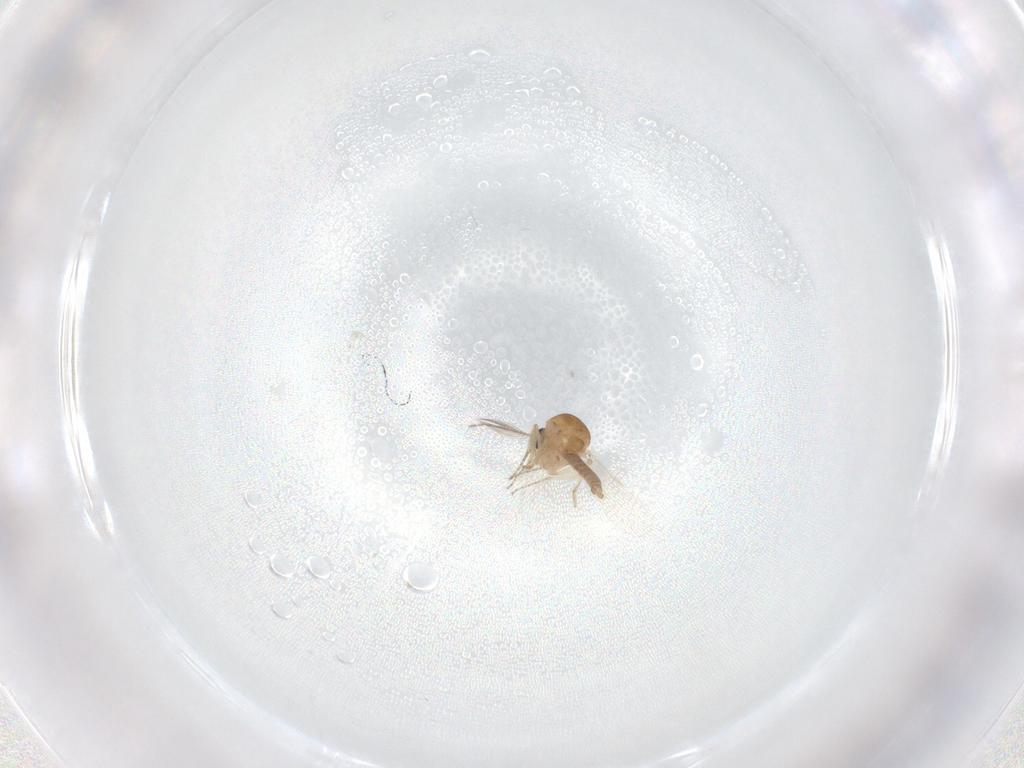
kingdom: Animalia
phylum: Arthropoda
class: Insecta
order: Diptera
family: Ceratopogonidae
